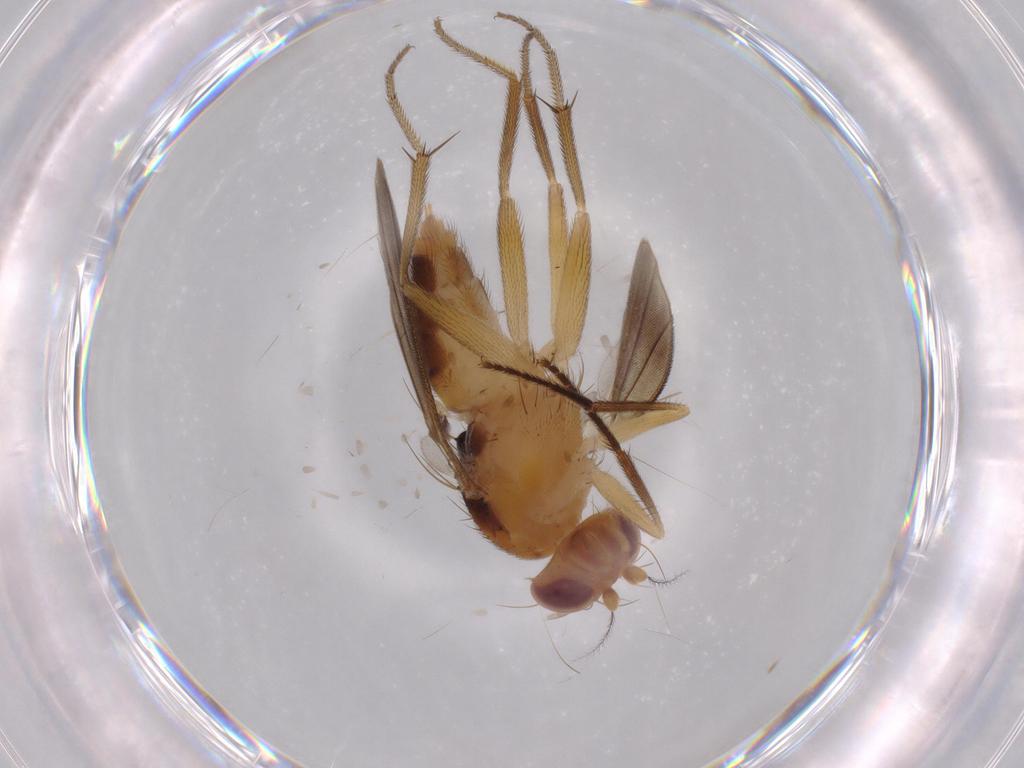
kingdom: Animalia
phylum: Arthropoda
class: Insecta
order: Diptera
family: Clusiidae
